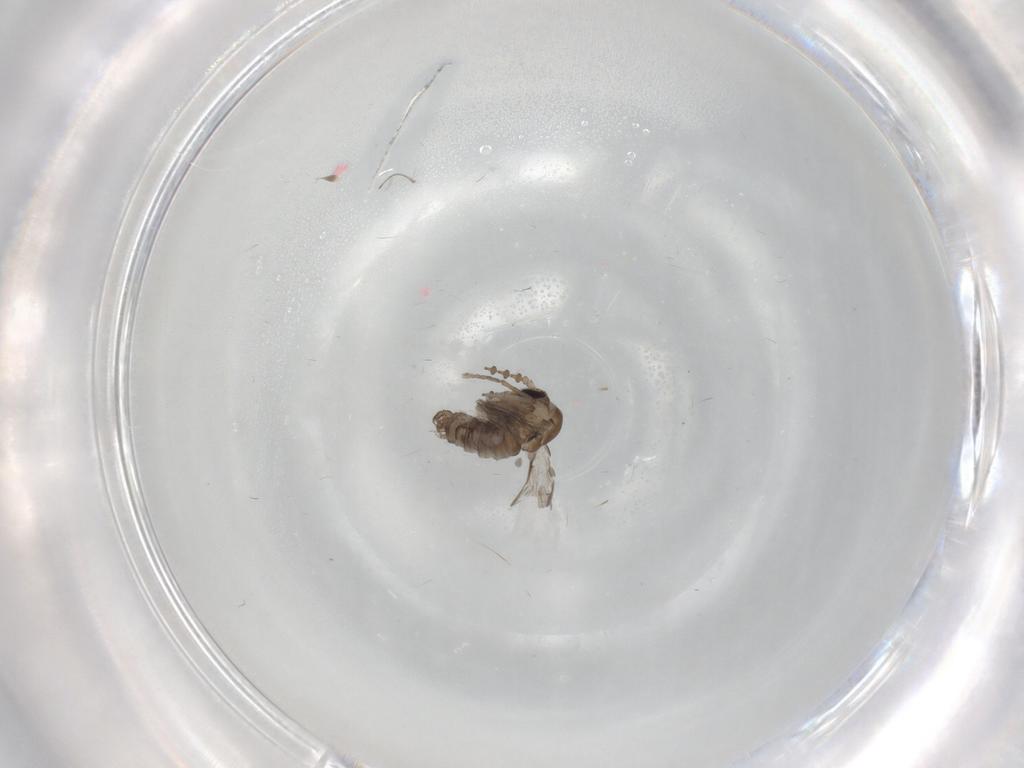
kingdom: Animalia
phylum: Arthropoda
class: Insecta
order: Diptera
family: Psychodidae
